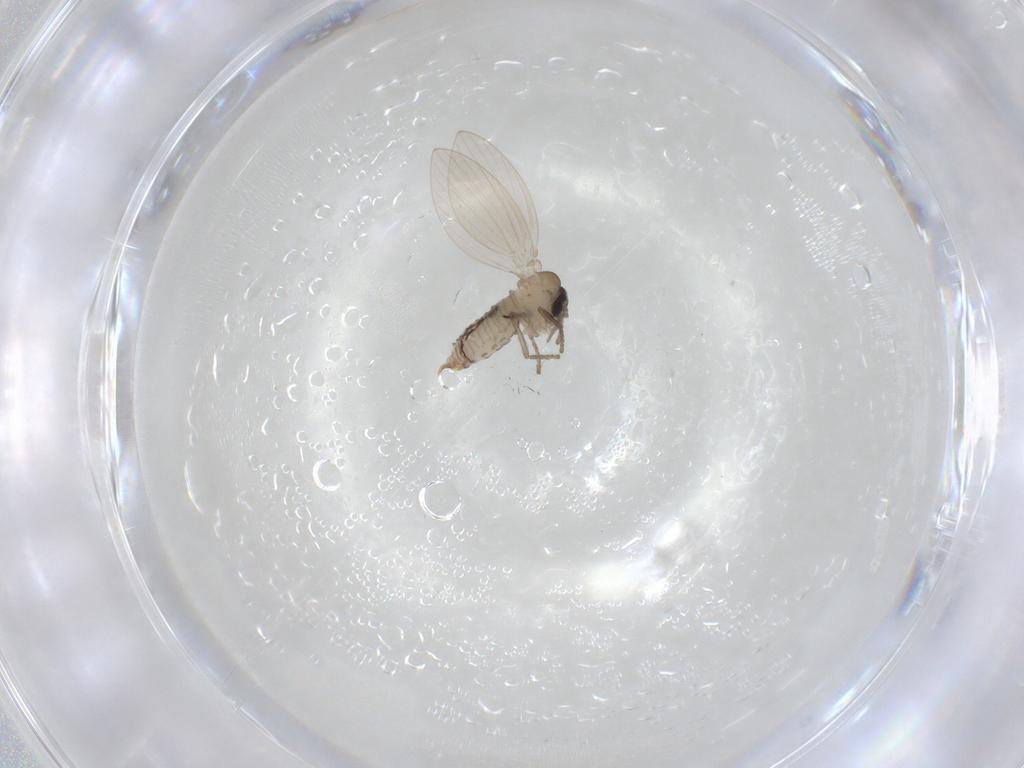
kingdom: Animalia
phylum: Arthropoda
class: Insecta
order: Diptera
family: Psychodidae
